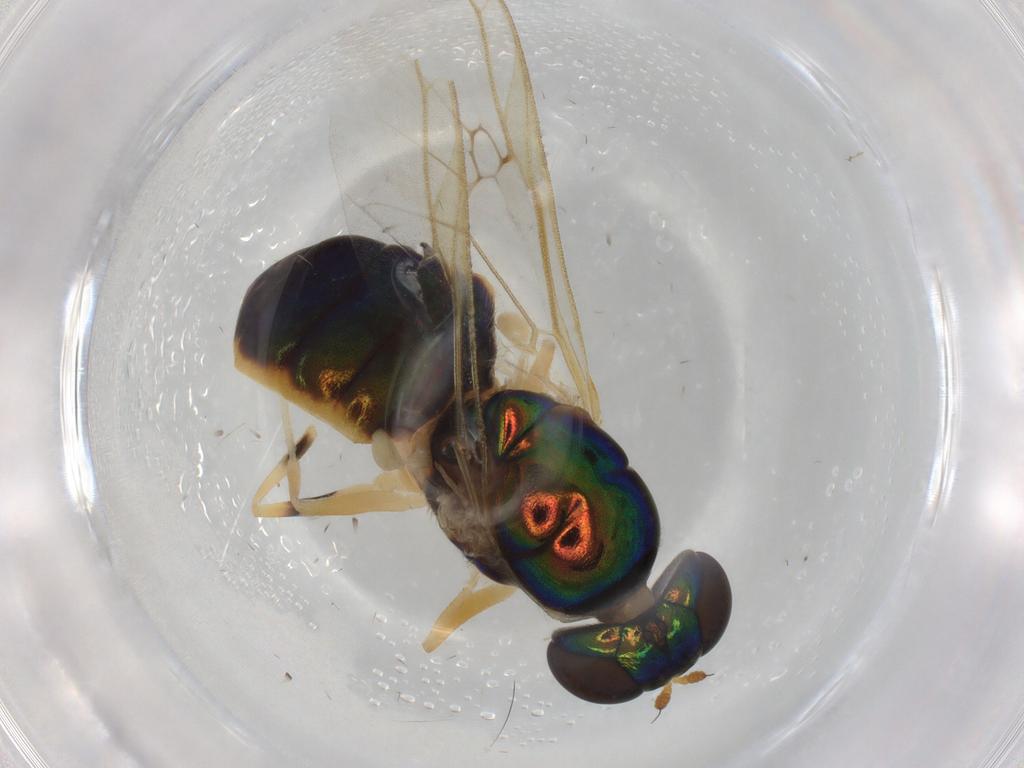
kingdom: Animalia
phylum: Arthropoda
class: Insecta
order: Diptera
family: Stratiomyidae
